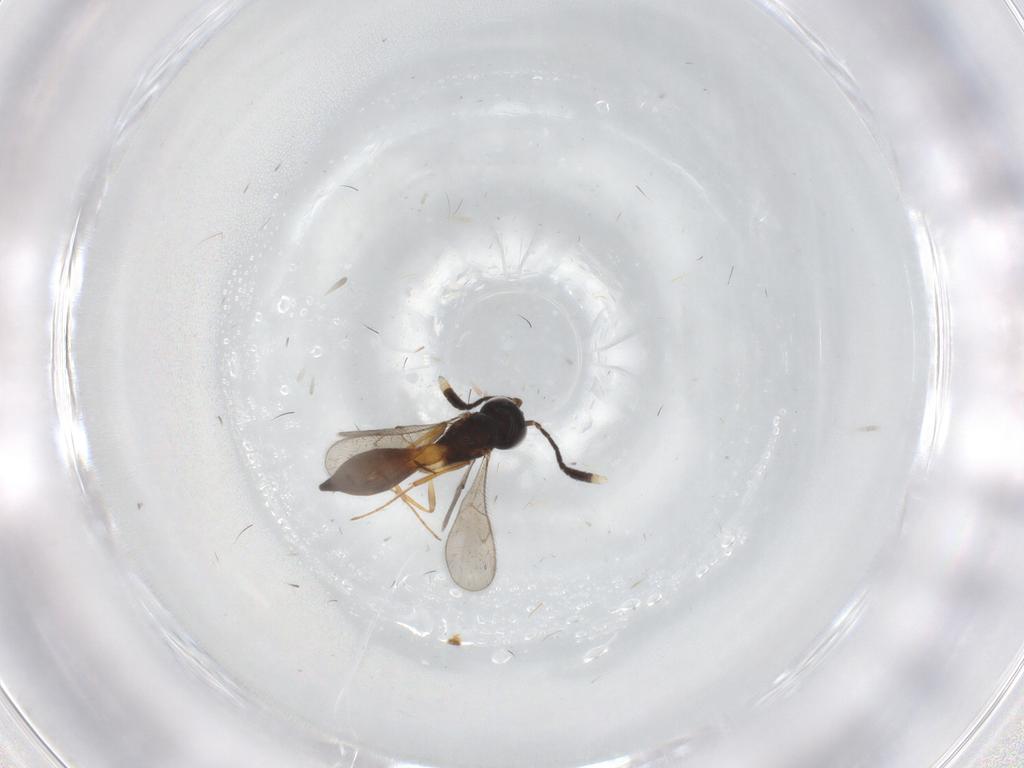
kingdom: Animalia
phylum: Arthropoda
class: Insecta
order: Hymenoptera
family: Scelionidae
